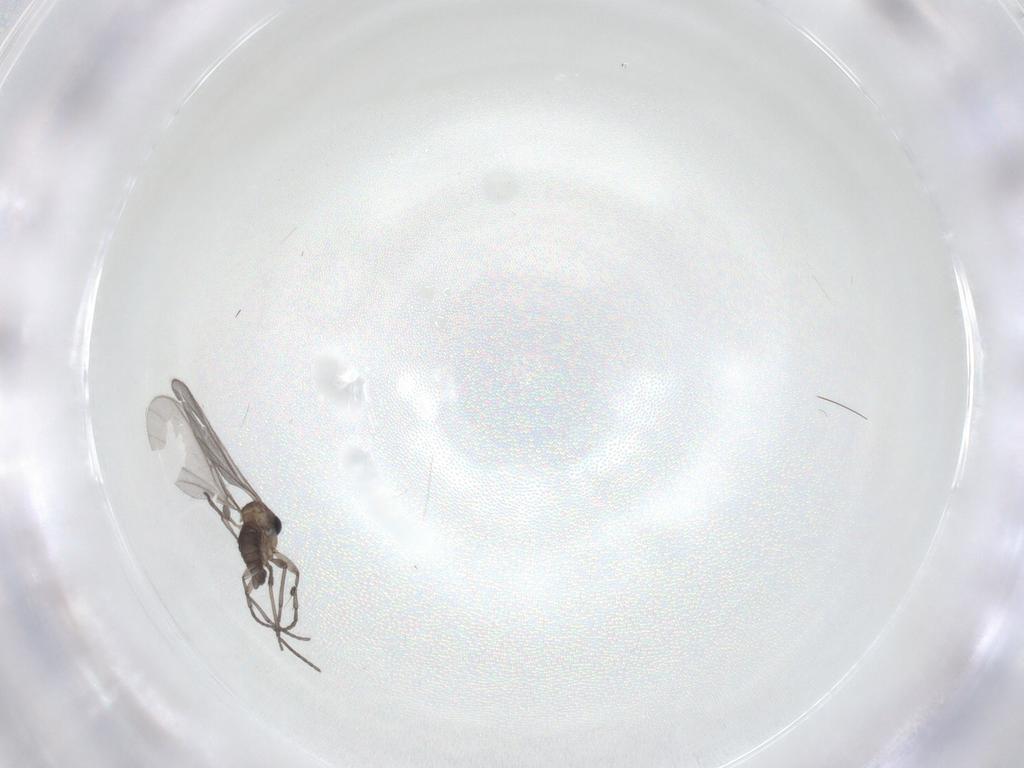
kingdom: Animalia
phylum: Arthropoda
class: Insecta
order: Diptera
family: Sciaridae
